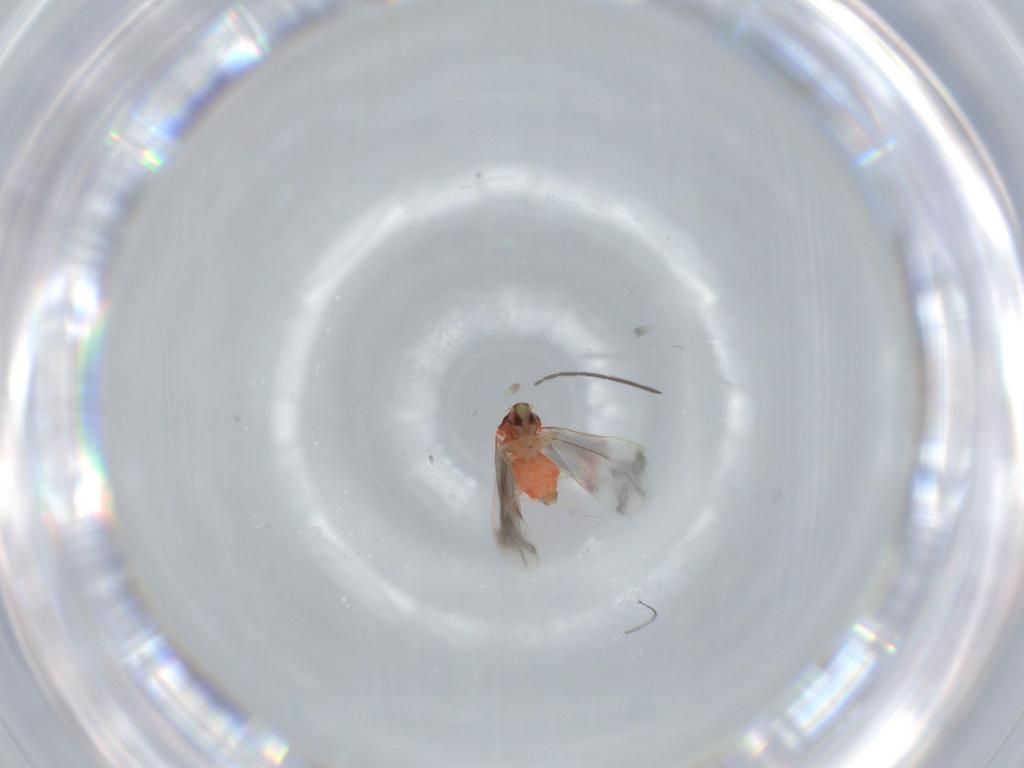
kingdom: Animalia
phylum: Arthropoda
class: Insecta
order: Hemiptera
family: Aleyrodidae
